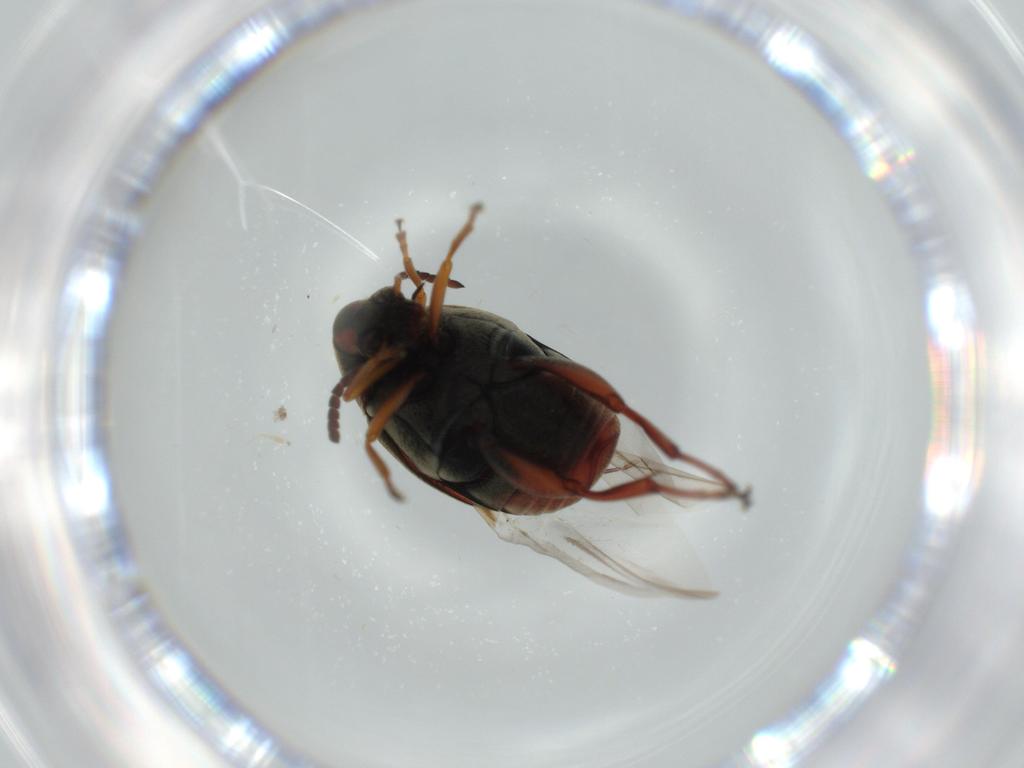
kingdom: Animalia
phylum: Arthropoda
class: Insecta
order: Coleoptera
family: Chrysomelidae
